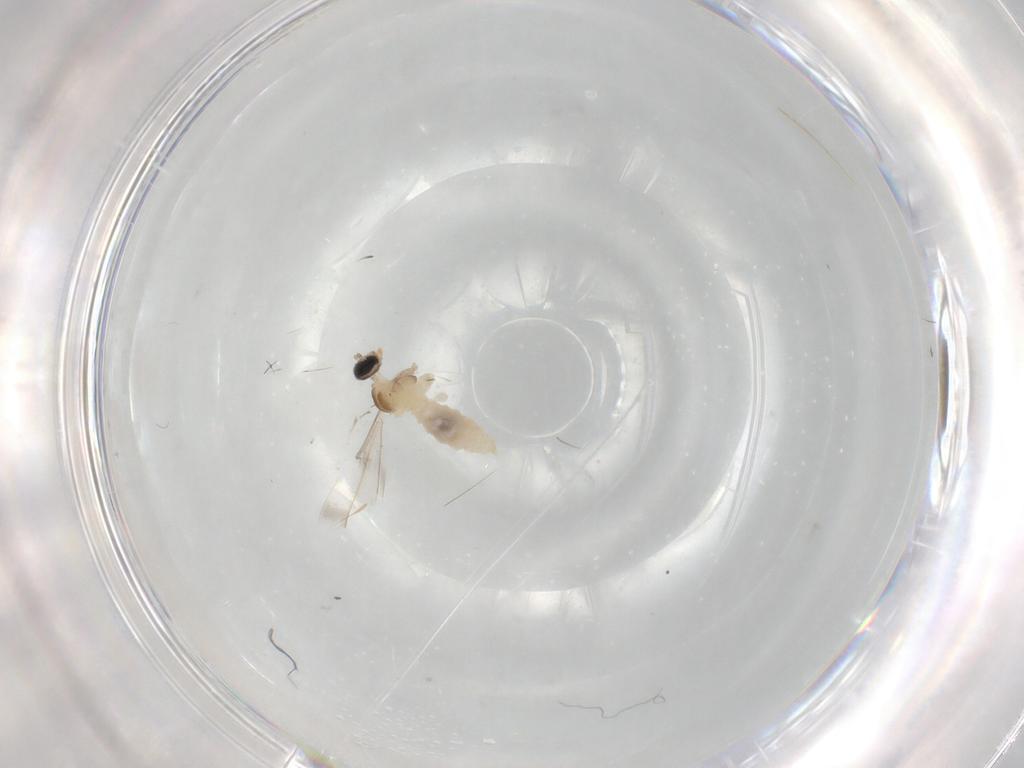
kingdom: Animalia
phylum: Arthropoda
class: Insecta
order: Diptera
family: Cecidomyiidae
